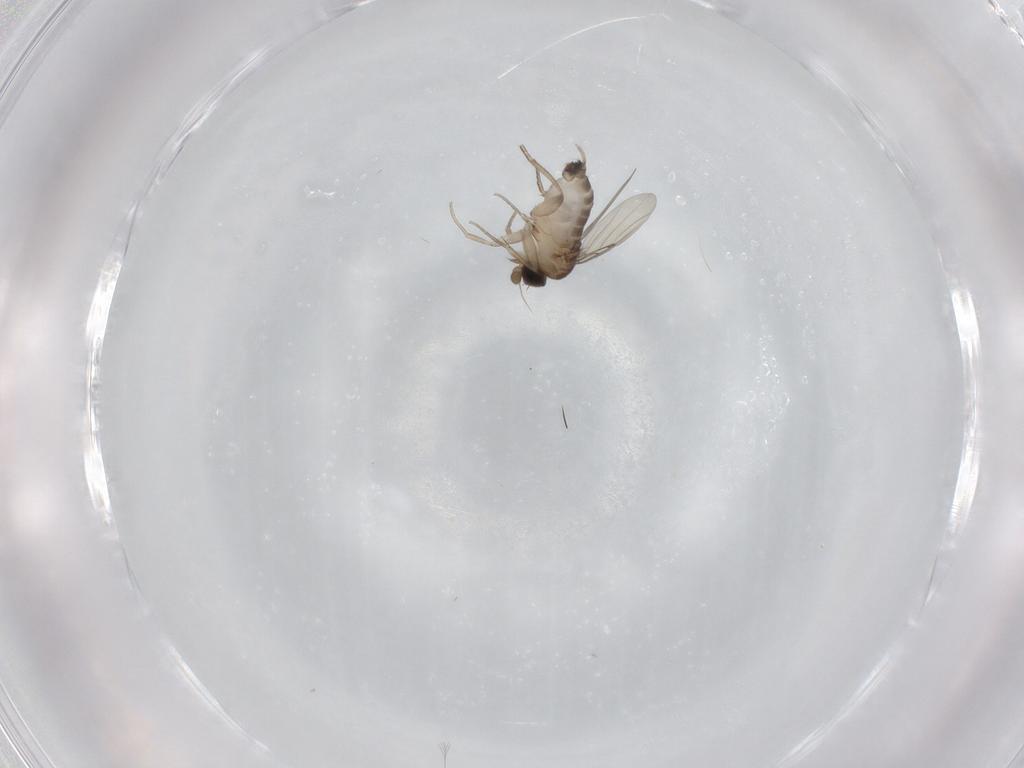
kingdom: Animalia
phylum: Arthropoda
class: Insecta
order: Diptera
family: Phoridae
